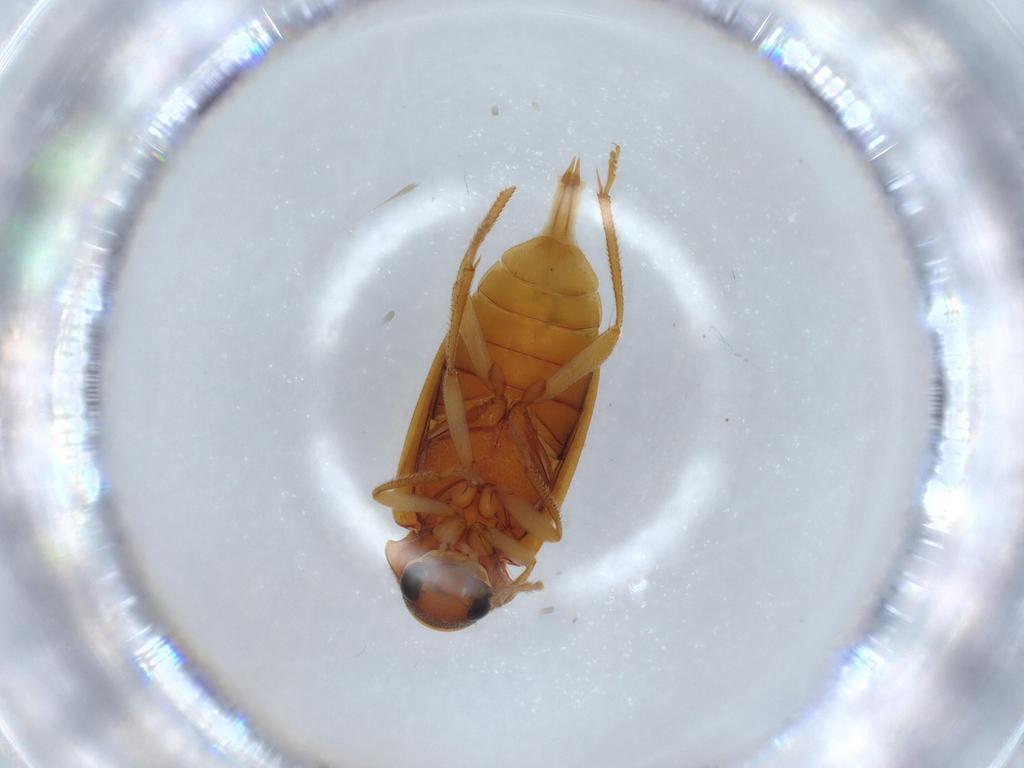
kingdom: Animalia
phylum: Arthropoda
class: Insecta
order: Coleoptera
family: Ptilodactylidae
